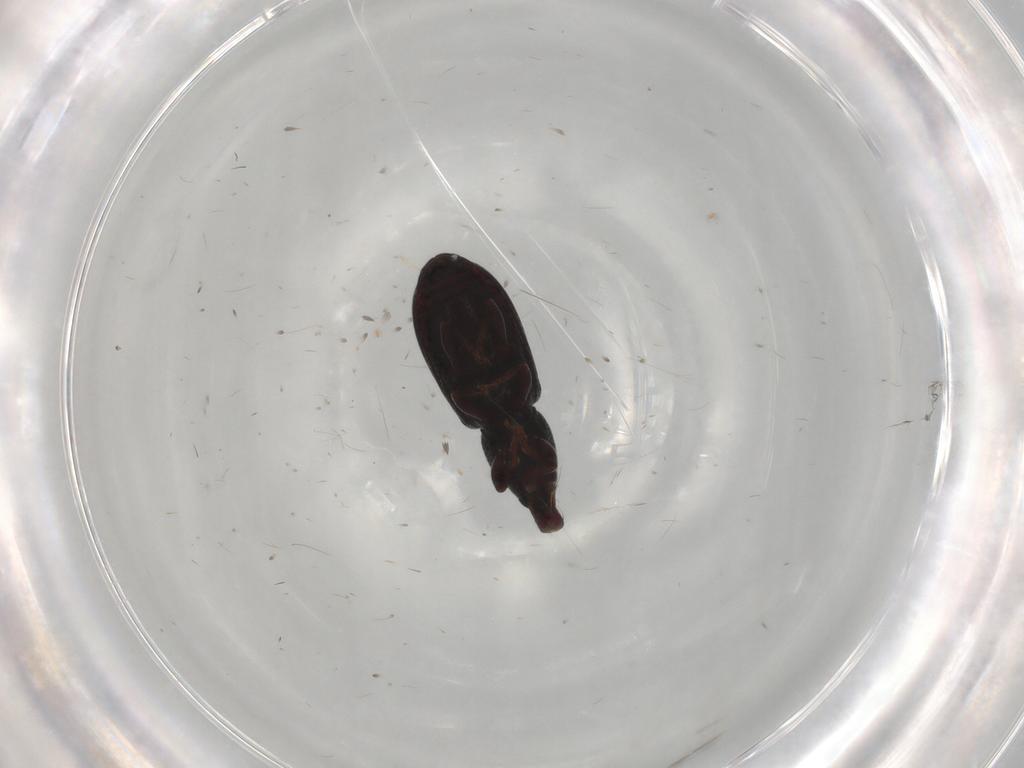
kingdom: Animalia
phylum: Arthropoda
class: Insecta
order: Coleoptera
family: Curculionidae
